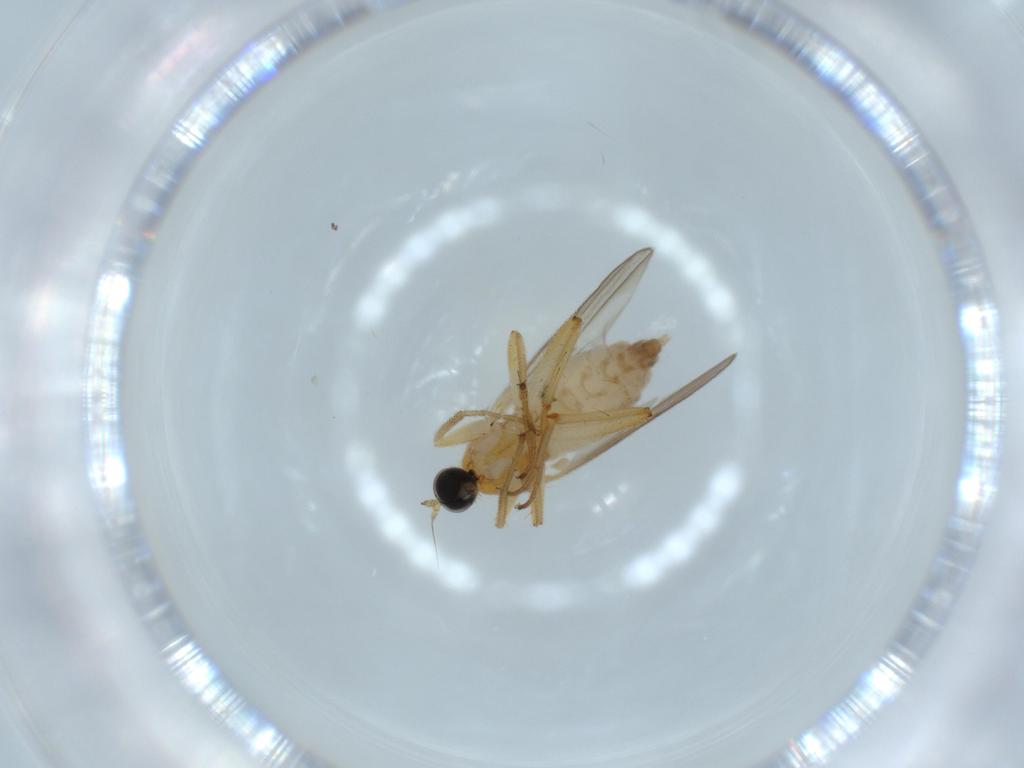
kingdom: Animalia
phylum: Arthropoda
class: Insecta
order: Diptera
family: Hybotidae
